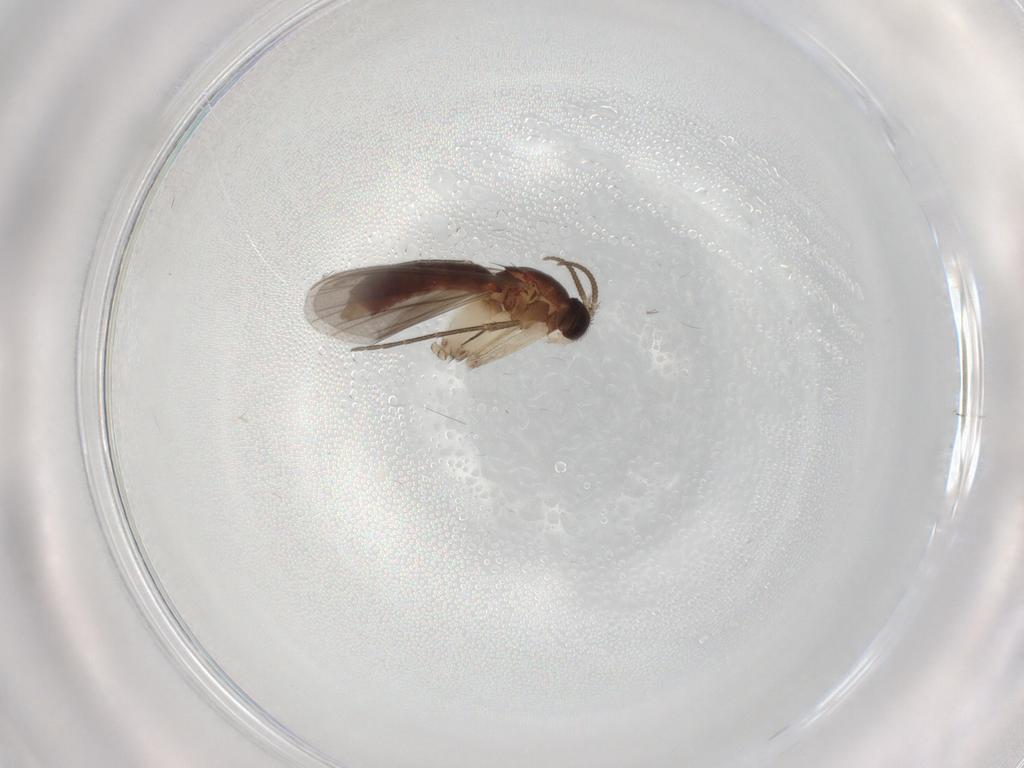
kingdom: Animalia
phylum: Arthropoda
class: Insecta
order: Diptera
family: Mycetophilidae
